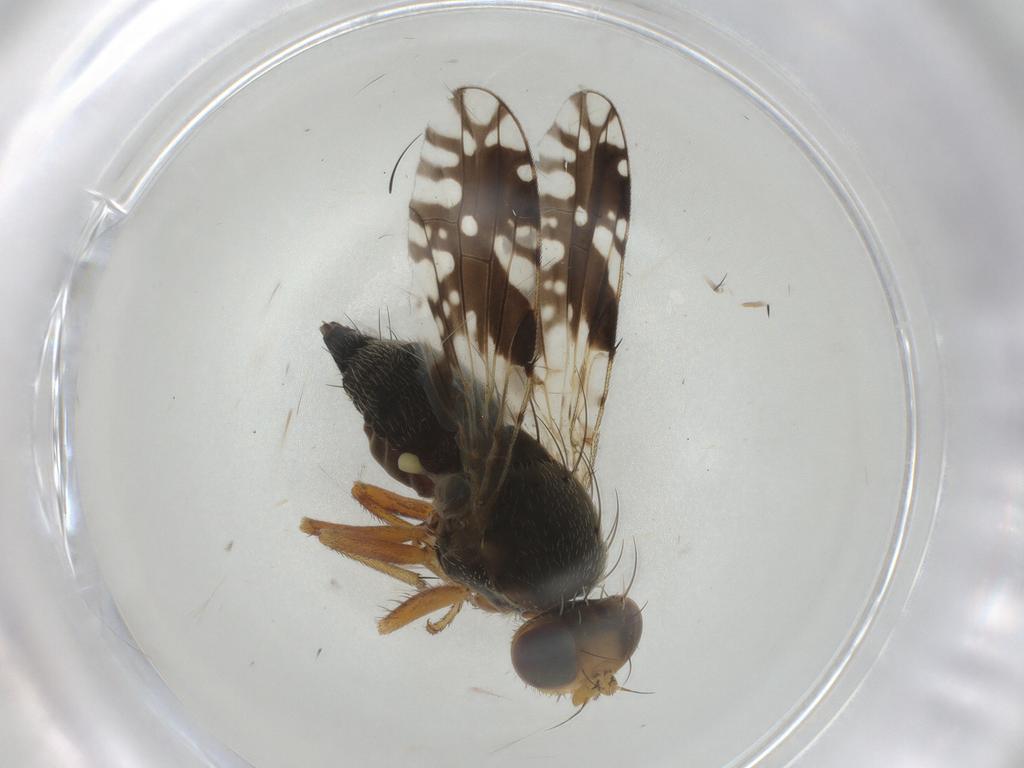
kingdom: Animalia
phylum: Arthropoda
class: Insecta
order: Diptera
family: Tephritidae
